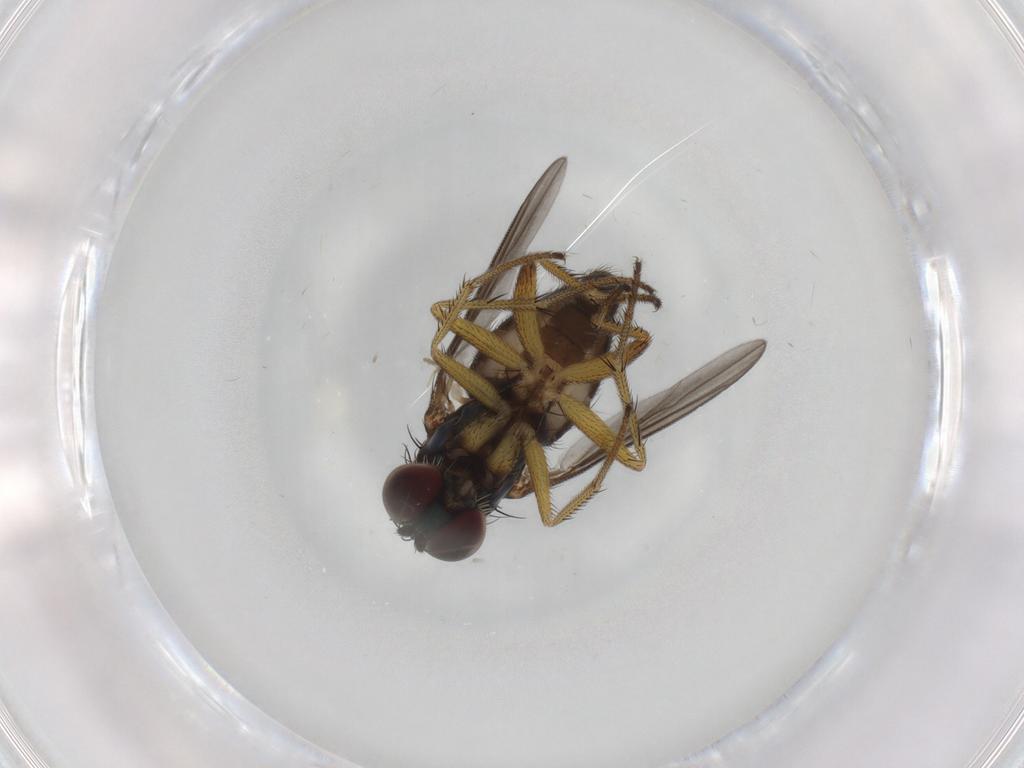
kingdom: Animalia
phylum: Arthropoda
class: Insecta
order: Diptera
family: Dolichopodidae
